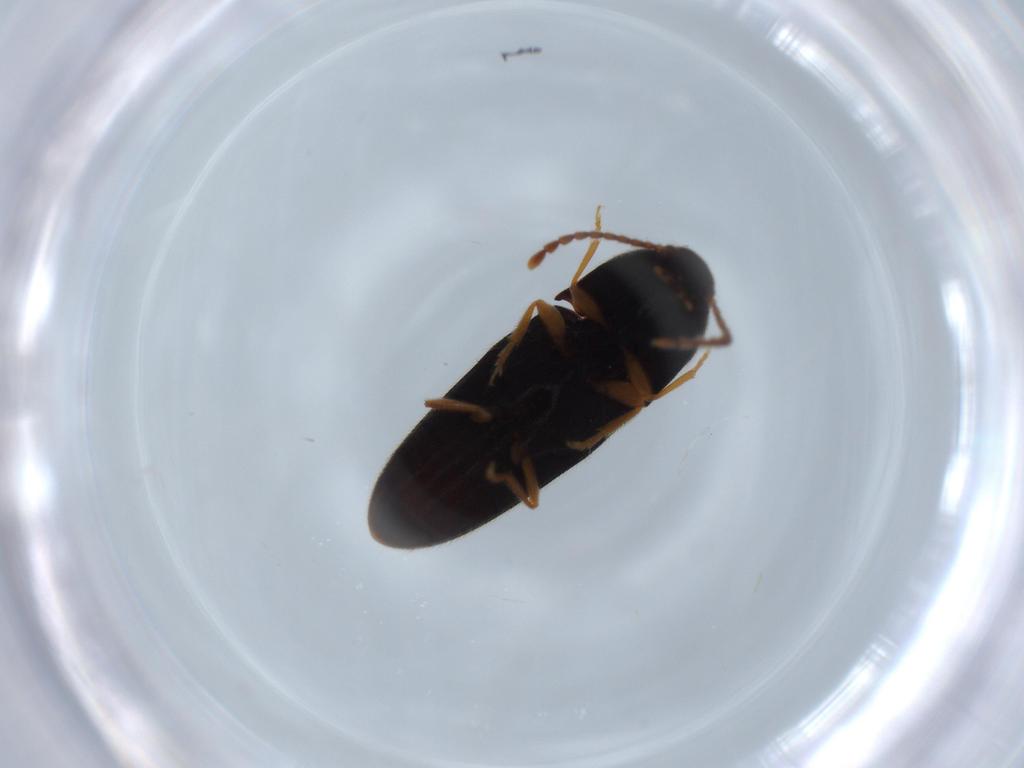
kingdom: Animalia
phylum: Arthropoda
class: Insecta
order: Coleoptera
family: Elateridae
